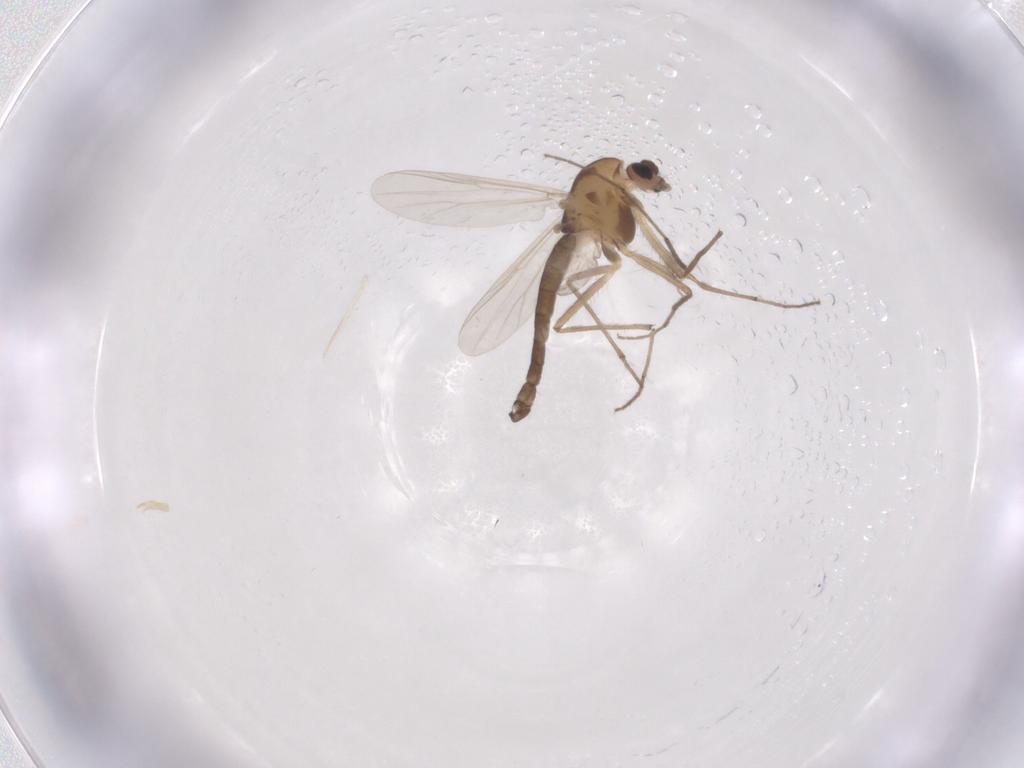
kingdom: Animalia
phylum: Arthropoda
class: Insecta
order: Diptera
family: Chironomidae
